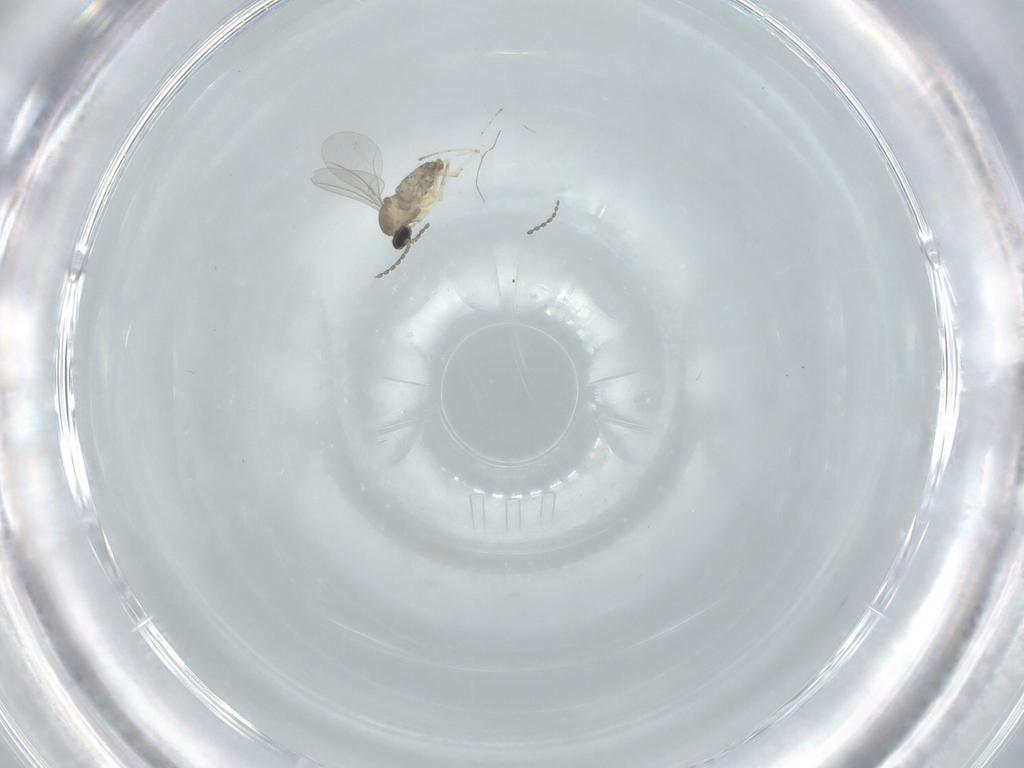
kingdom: Animalia
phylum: Arthropoda
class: Insecta
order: Diptera
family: Cecidomyiidae
